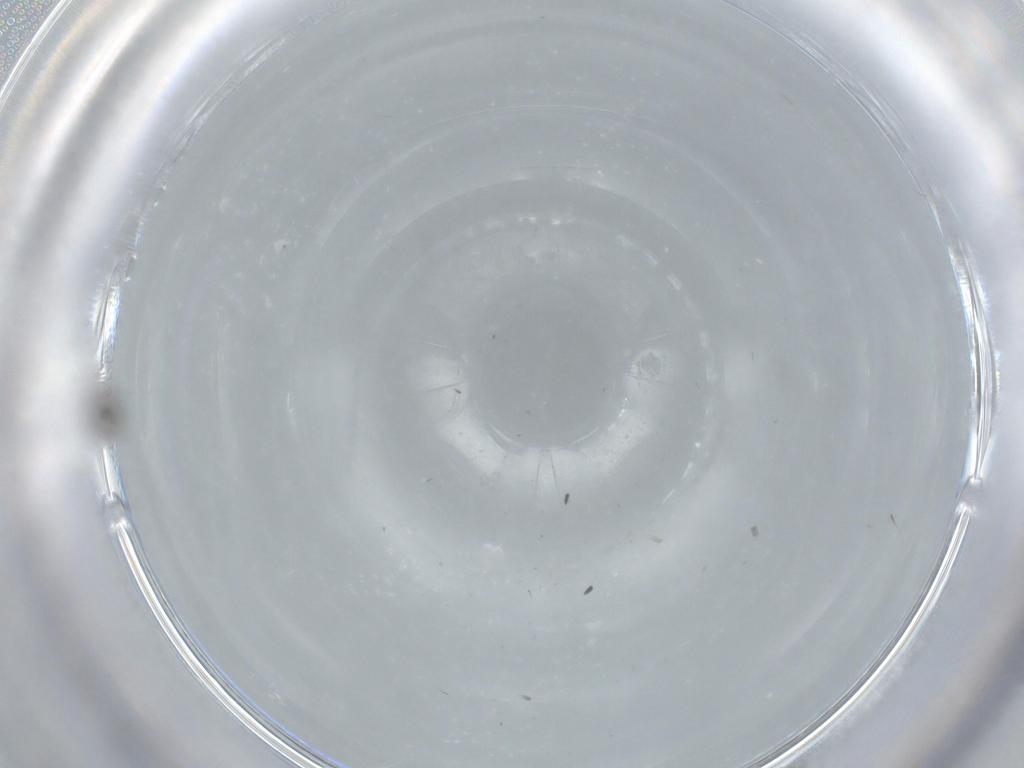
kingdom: Animalia
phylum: Arthropoda
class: Insecta
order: Diptera
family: Cecidomyiidae
